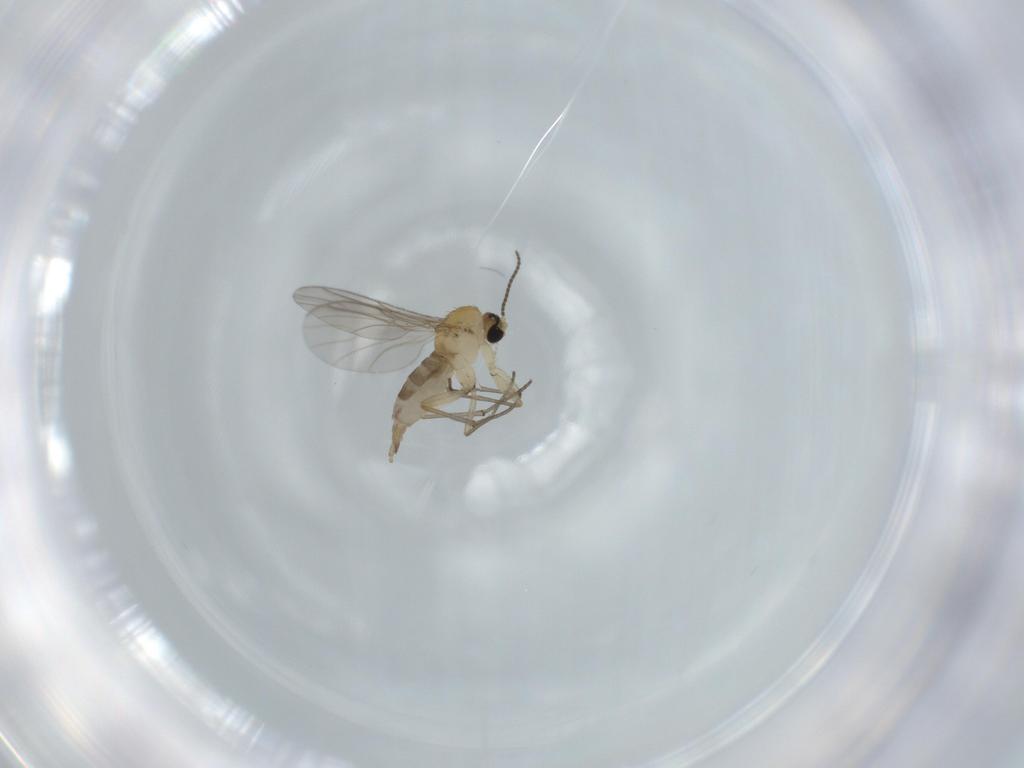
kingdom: Animalia
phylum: Arthropoda
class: Insecta
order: Diptera
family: Sciaridae
